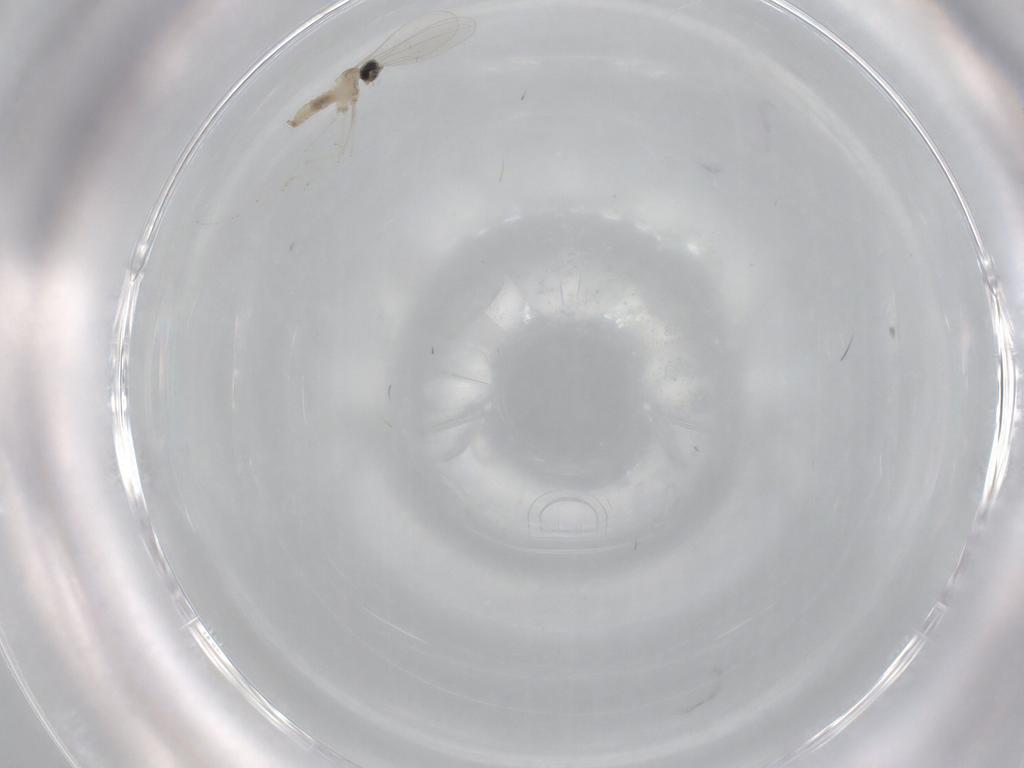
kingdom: Animalia
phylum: Arthropoda
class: Insecta
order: Diptera
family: Cecidomyiidae
